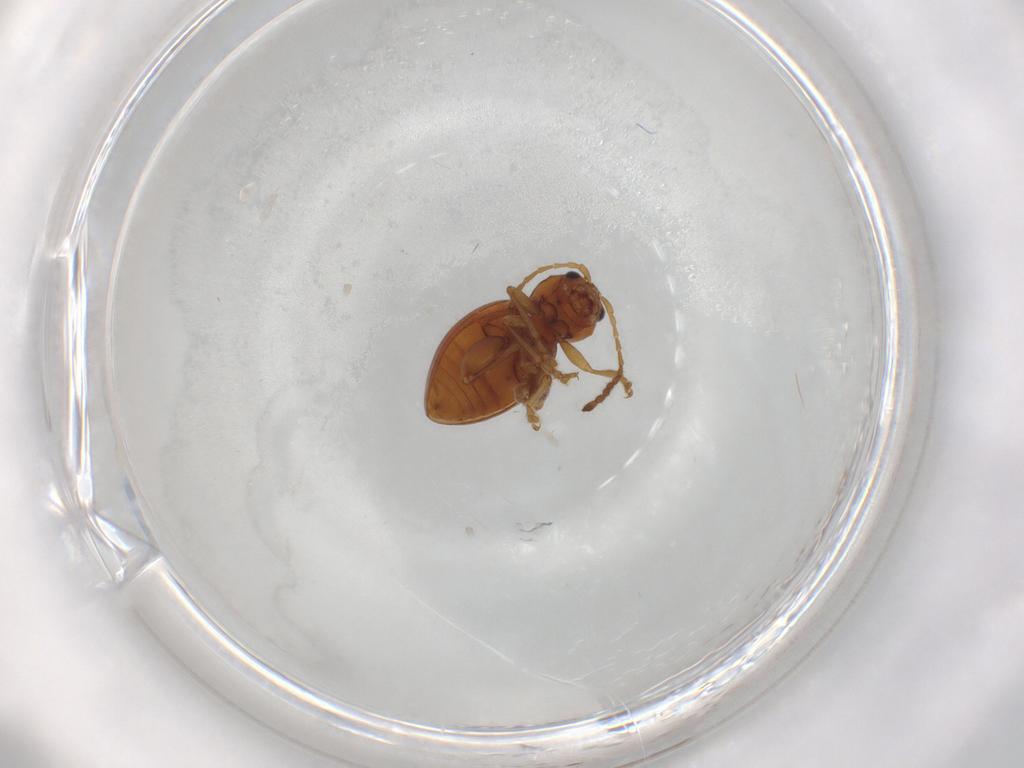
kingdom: Animalia
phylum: Arthropoda
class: Insecta
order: Coleoptera
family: Chrysomelidae
